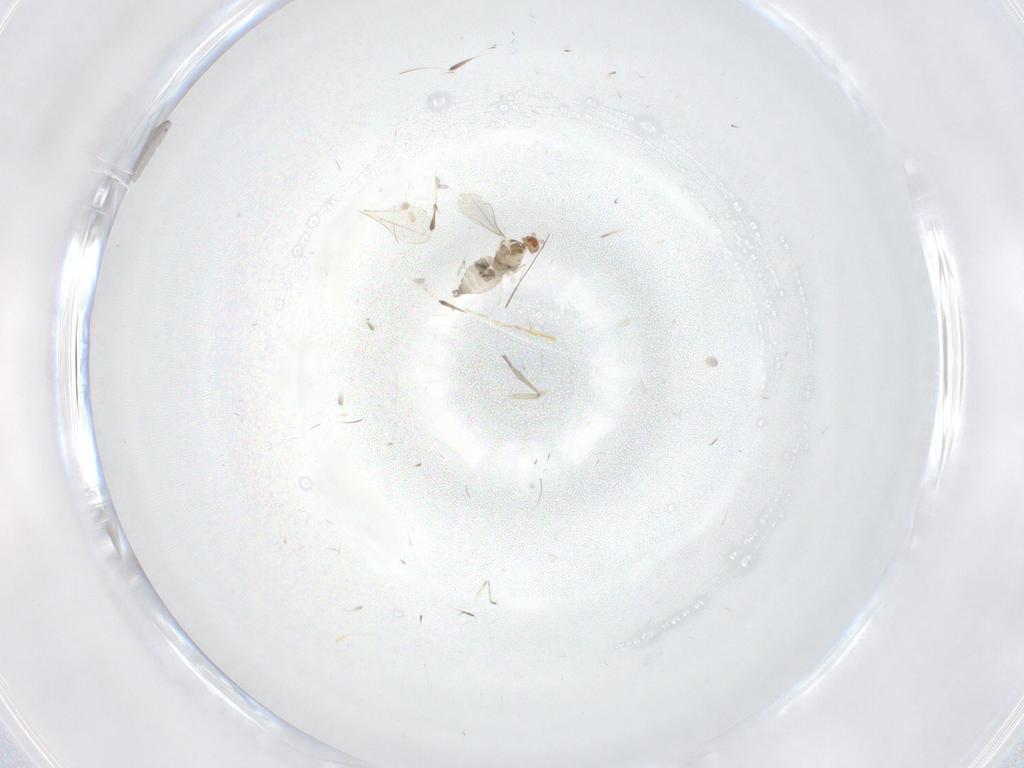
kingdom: Animalia
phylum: Arthropoda
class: Insecta
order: Diptera
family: Cecidomyiidae
